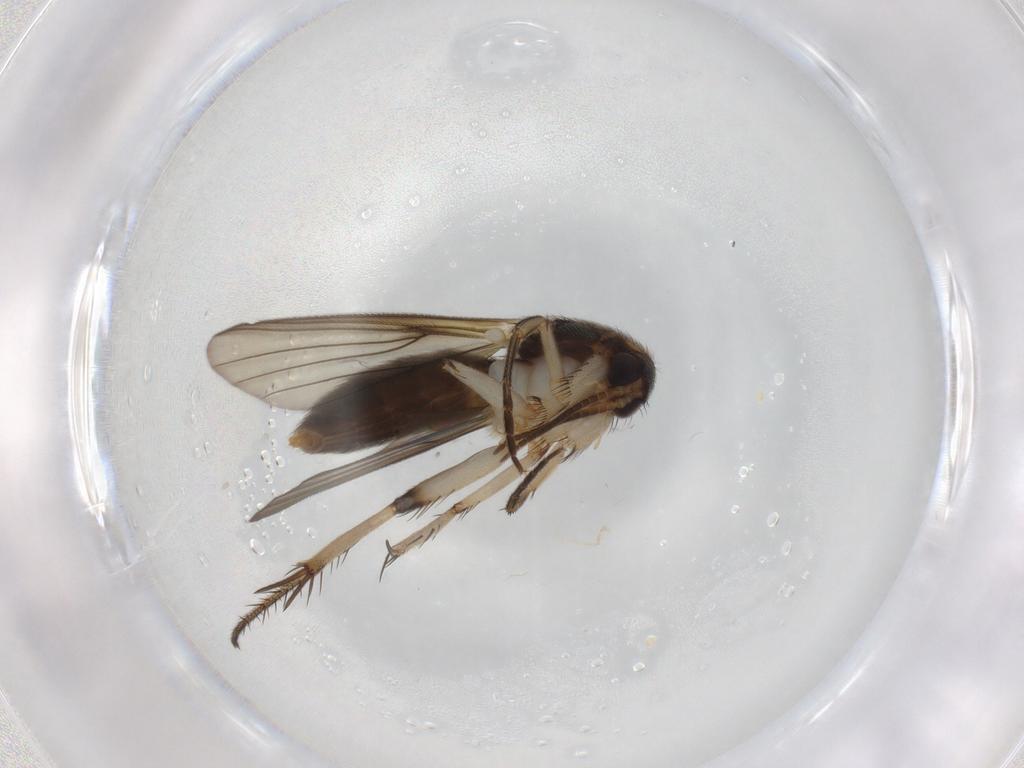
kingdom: Animalia
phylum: Arthropoda
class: Insecta
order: Diptera
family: Mycetophilidae
